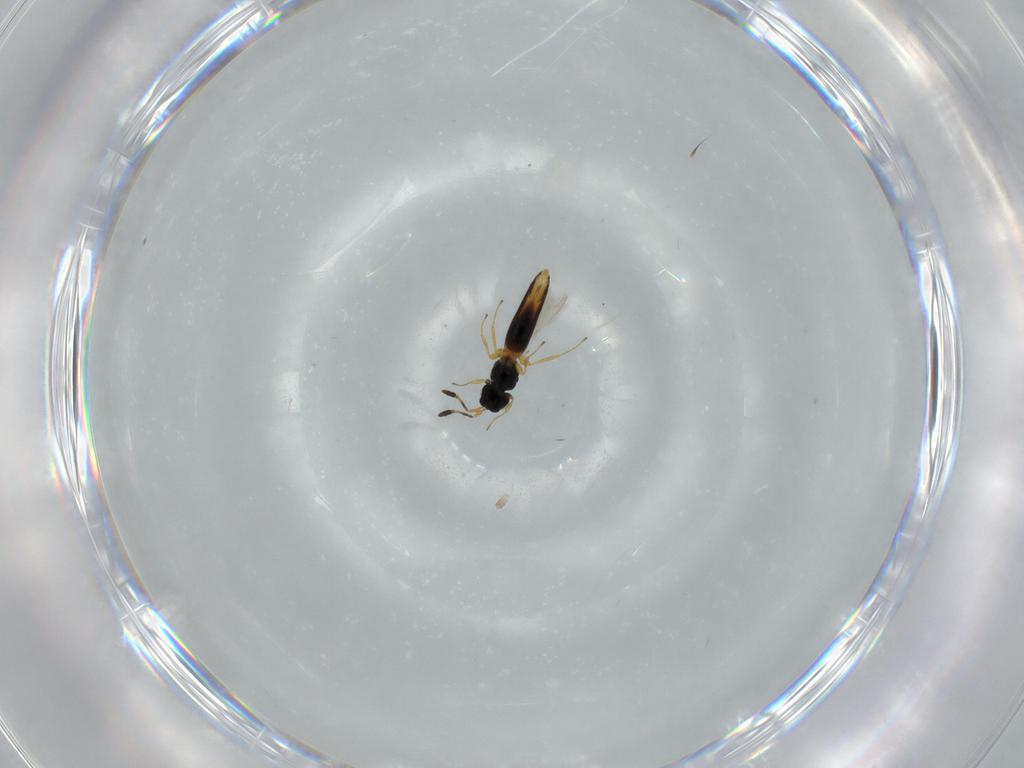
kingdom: Animalia
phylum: Arthropoda
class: Insecta
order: Hymenoptera
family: Scelionidae
